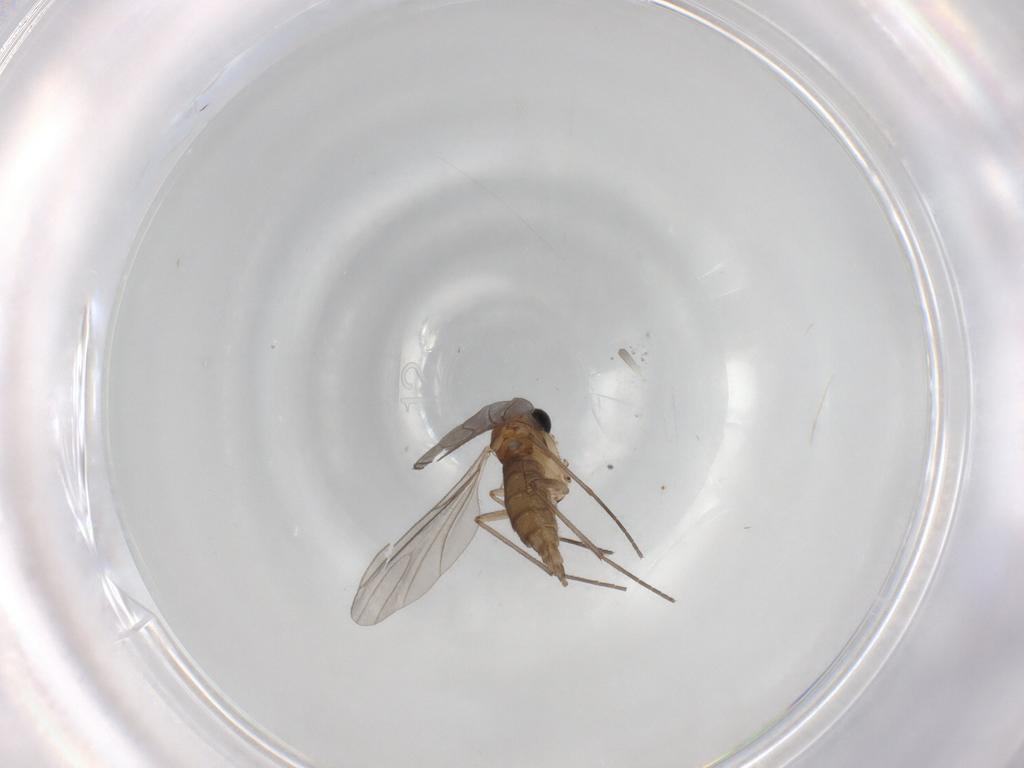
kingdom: Animalia
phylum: Arthropoda
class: Insecta
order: Diptera
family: Sciaridae
